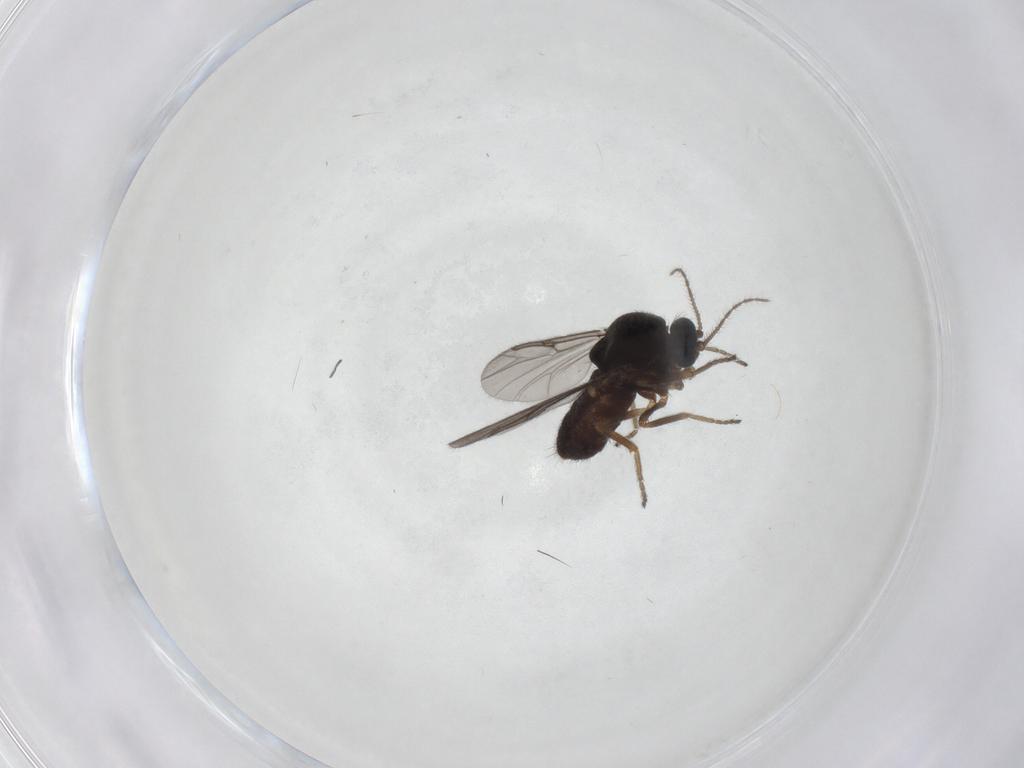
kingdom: Animalia
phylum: Arthropoda
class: Insecta
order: Diptera
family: Ceratopogonidae
